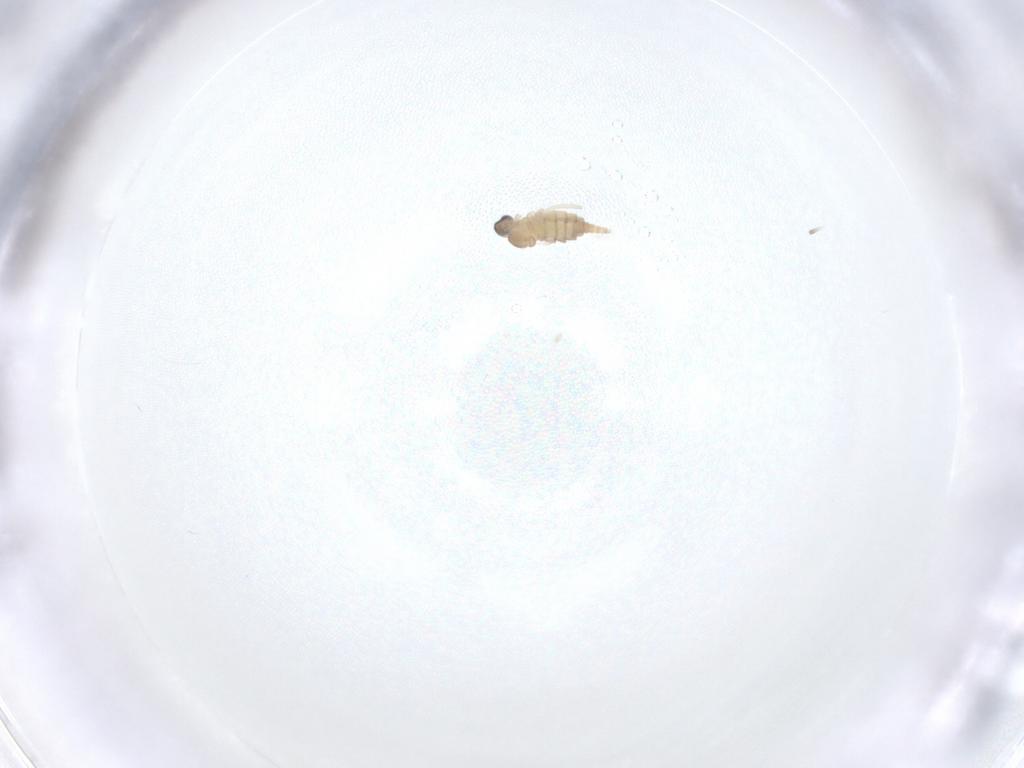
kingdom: Animalia
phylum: Arthropoda
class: Insecta
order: Diptera
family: Cecidomyiidae
